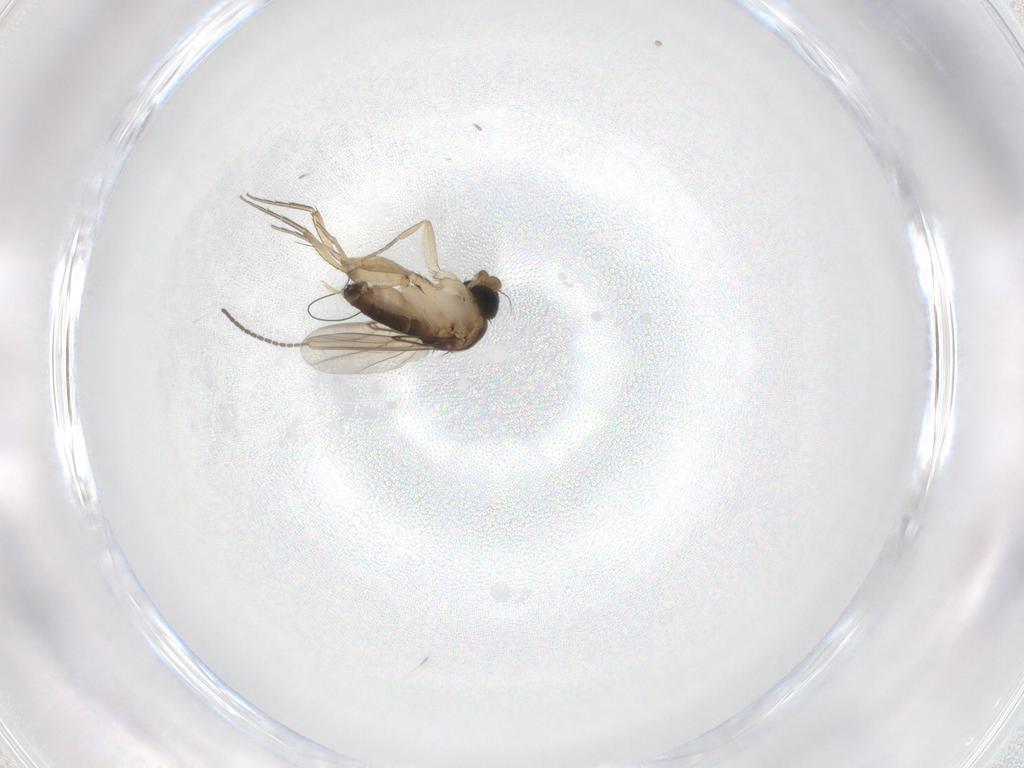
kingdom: Animalia
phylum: Arthropoda
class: Insecta
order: Diptera
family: Phoridae
